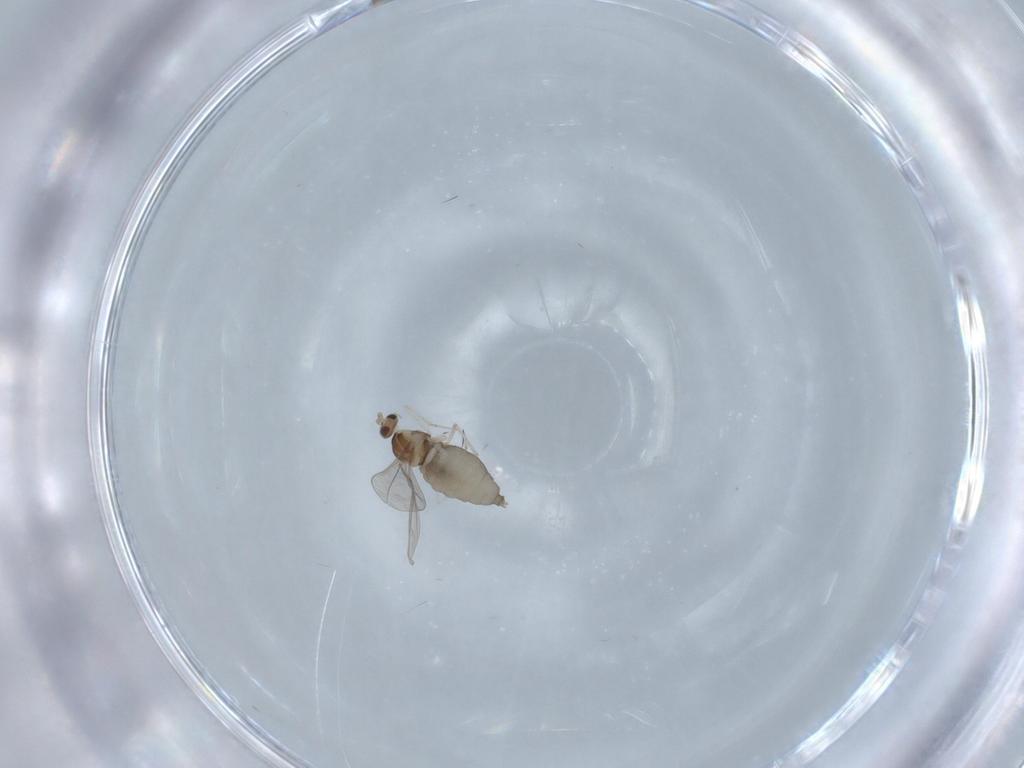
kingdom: Animalia
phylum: Arthropoda
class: Insecta
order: Diptera
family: Cecidomyiidae
